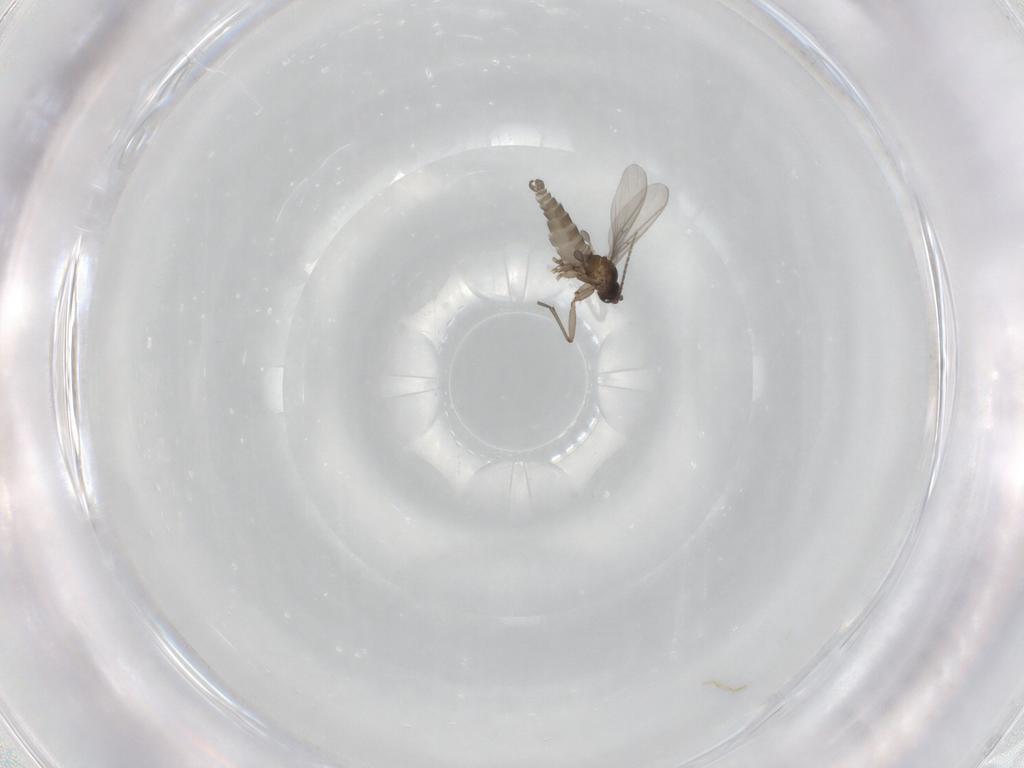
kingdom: Animalia
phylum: Arthropoda
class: Insecta
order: Diptera
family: Sciaridae
